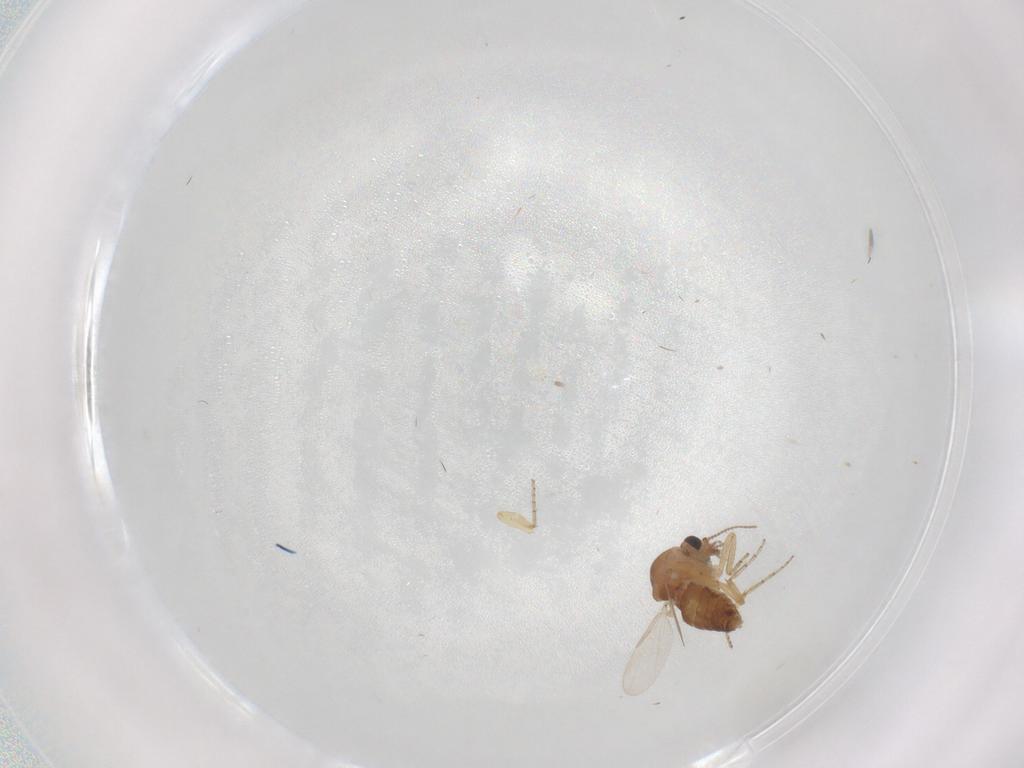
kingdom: Animalia
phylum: Arthropoda
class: Insecta
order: Diptera
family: Ceratopogonidae
